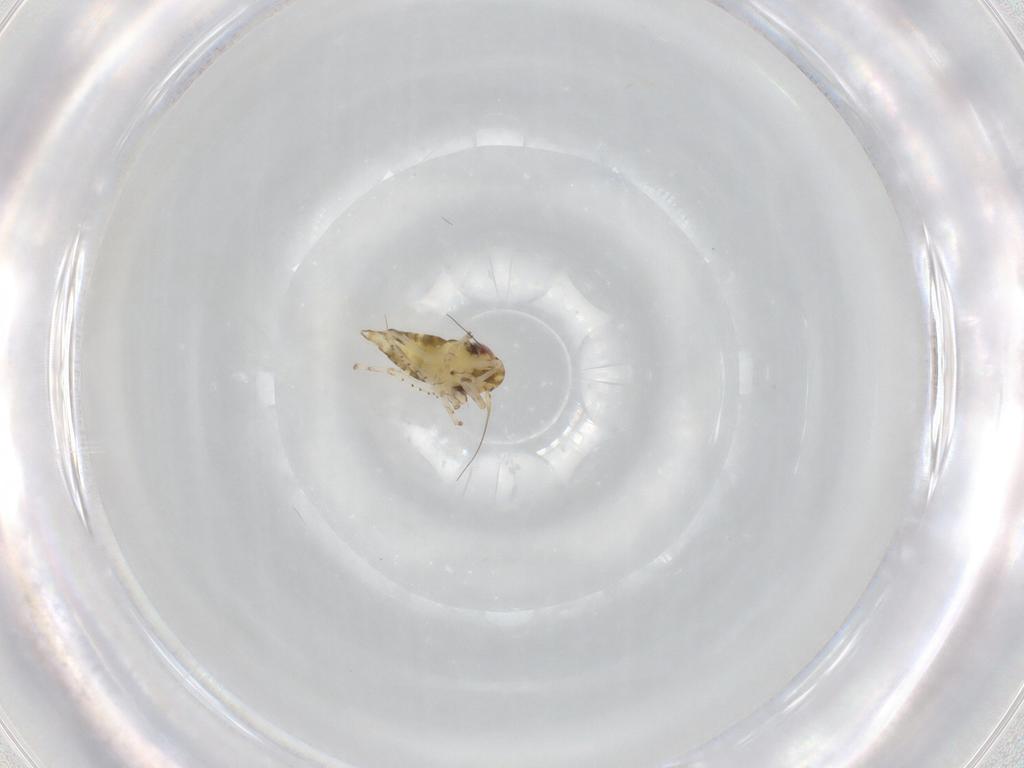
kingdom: Animalia
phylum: Arthropoda
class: Insecta
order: Hemiptera
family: Cicadellidae
